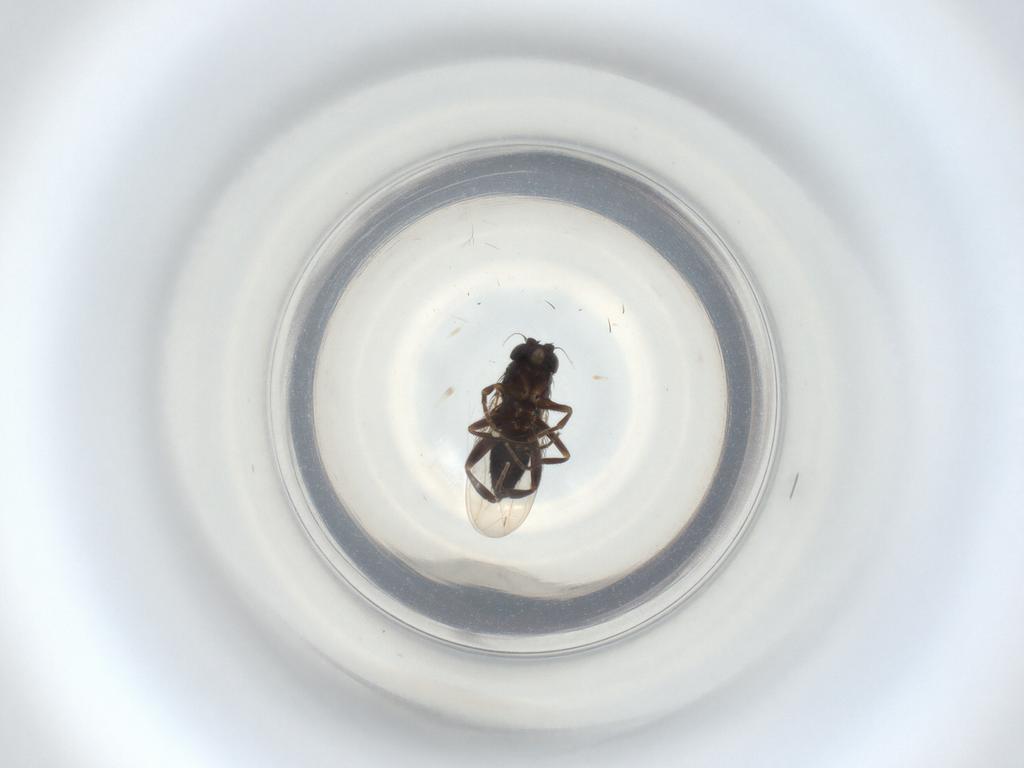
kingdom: Animalia
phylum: Arthropoda
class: Insecta
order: Diptera
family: Phoridae
